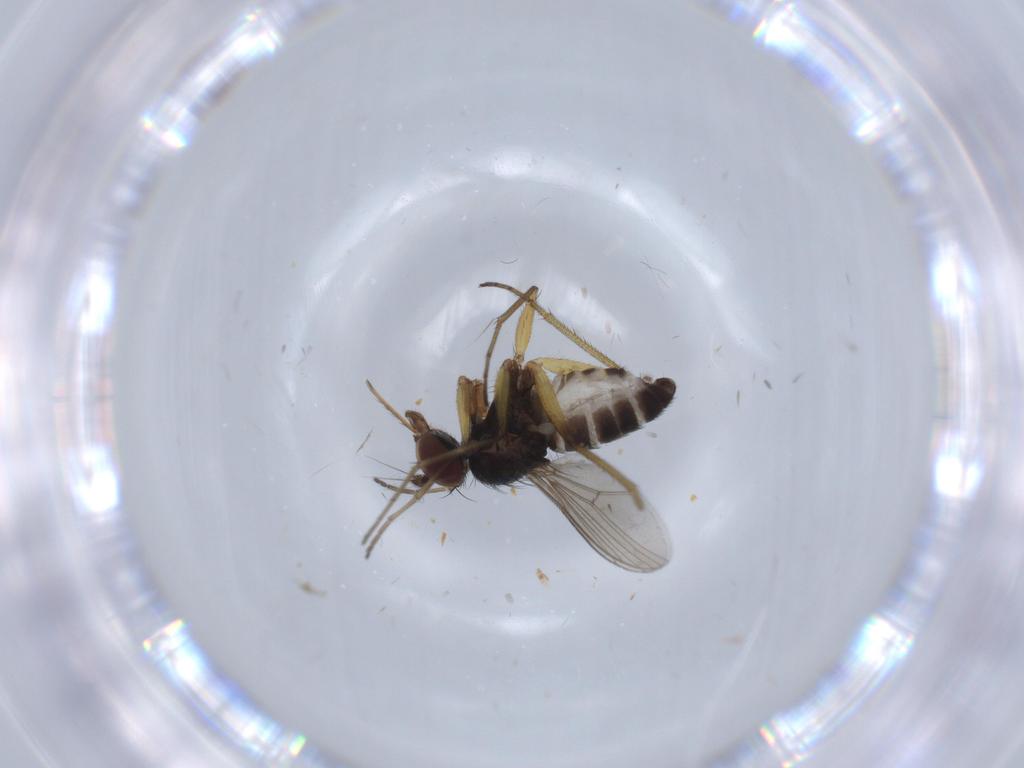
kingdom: Animalia
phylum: Arthropoda
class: Insecta
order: Diptera
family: Dolichopodidae
